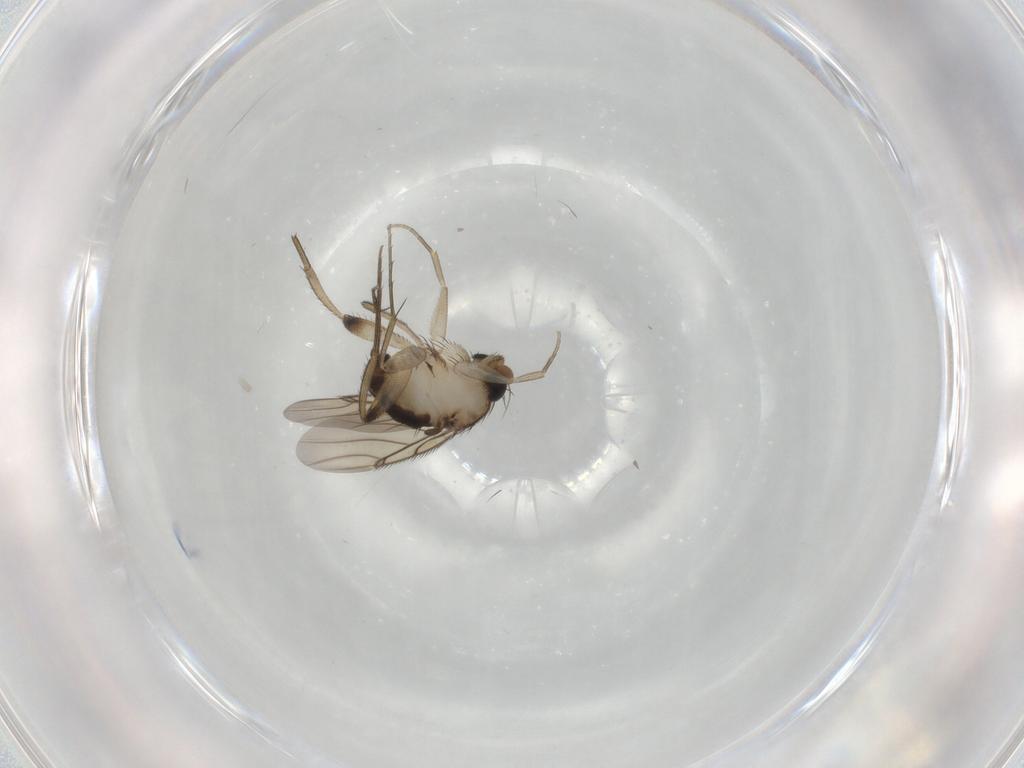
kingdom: Animalia
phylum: Arthropoda
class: Insecta
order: Diptera
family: Phoridae
